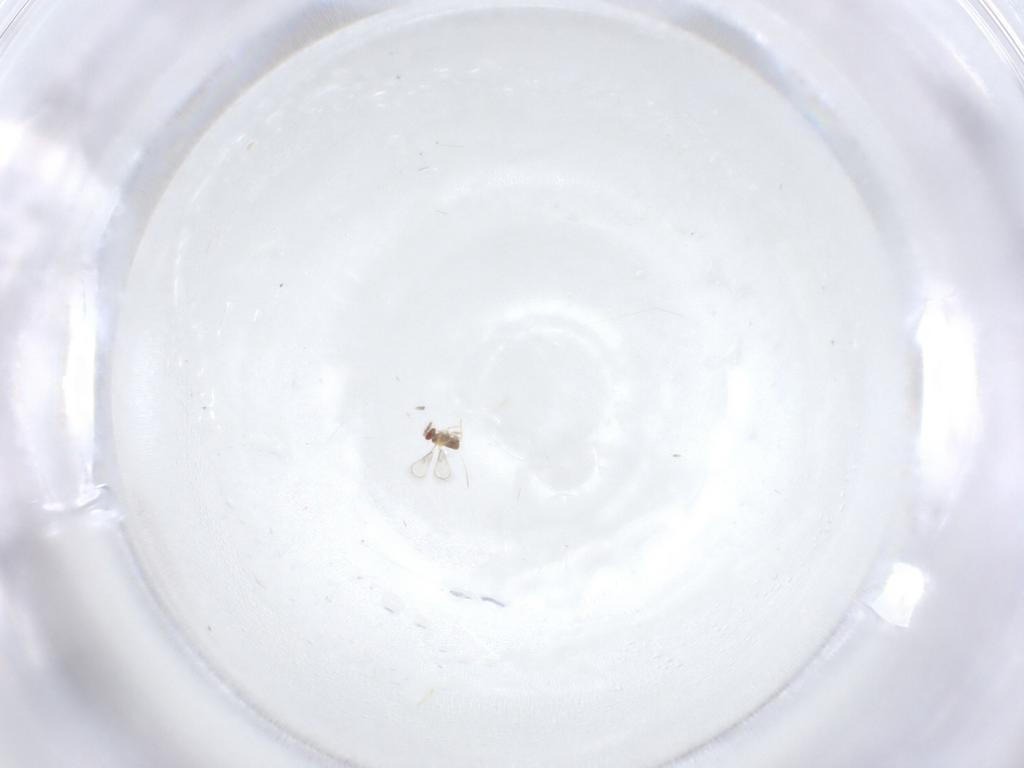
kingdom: Animalia
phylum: Arthropoda
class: Insecta
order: Hymenoptera
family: Trichogrammatidae
